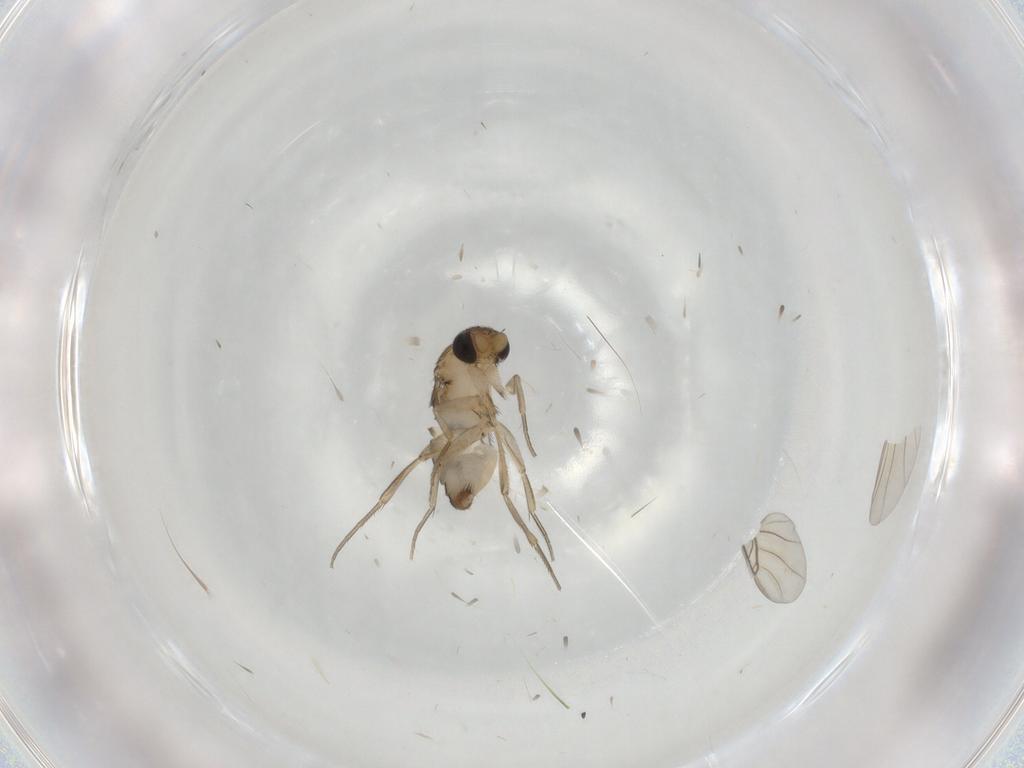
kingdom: Animalia
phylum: Arthropoda
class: Insecta
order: Diptera
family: Phoridae
